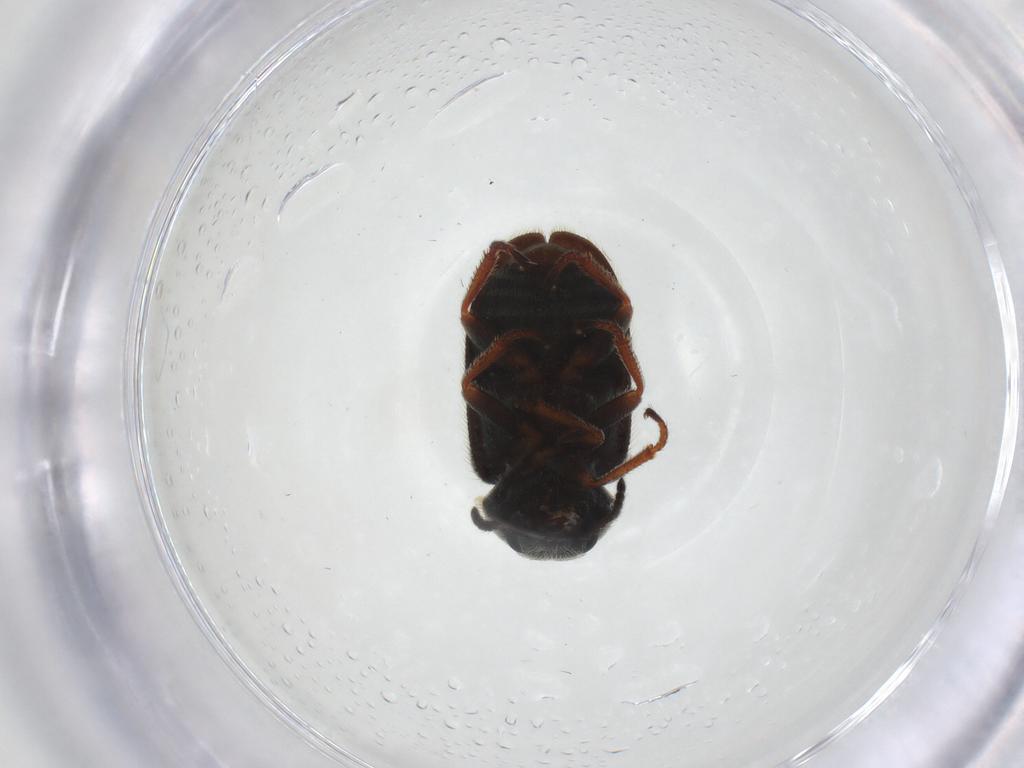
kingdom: Animalia
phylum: Arthropoda
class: Insecta
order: Coleoptera
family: Melyridae
